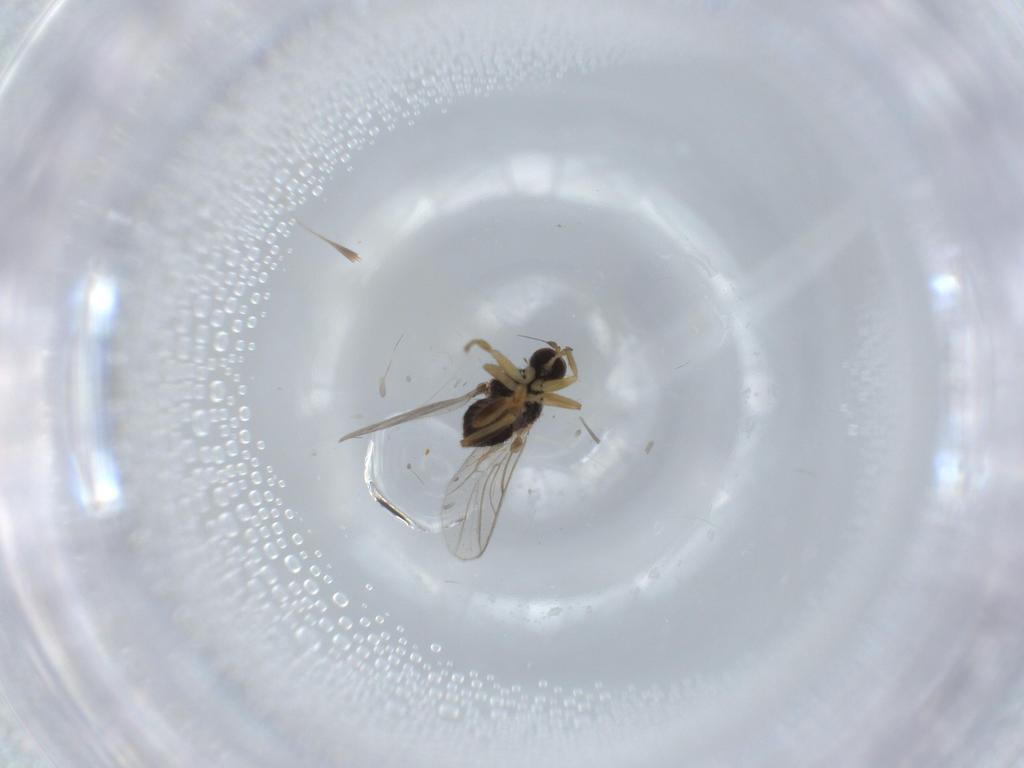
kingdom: Animalia
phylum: Arthropoda
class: Insecta
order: Diptera
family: Hybotidae
